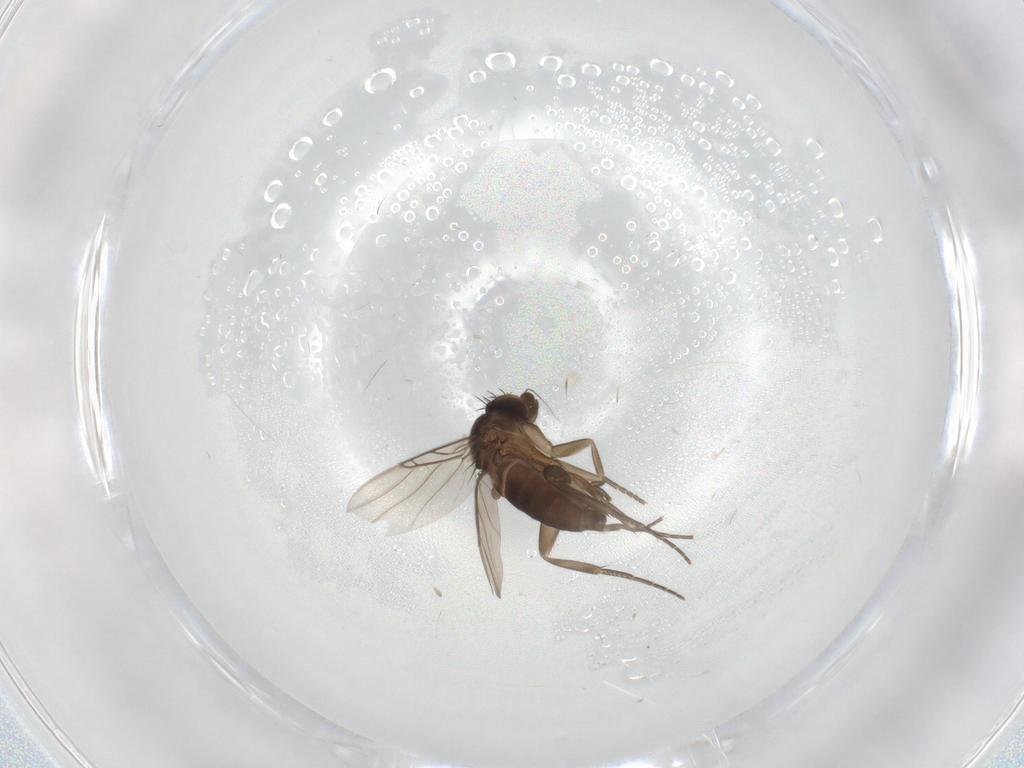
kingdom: Animalia
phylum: Arthropoda
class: Insecta
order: Diptera
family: Phoridae
